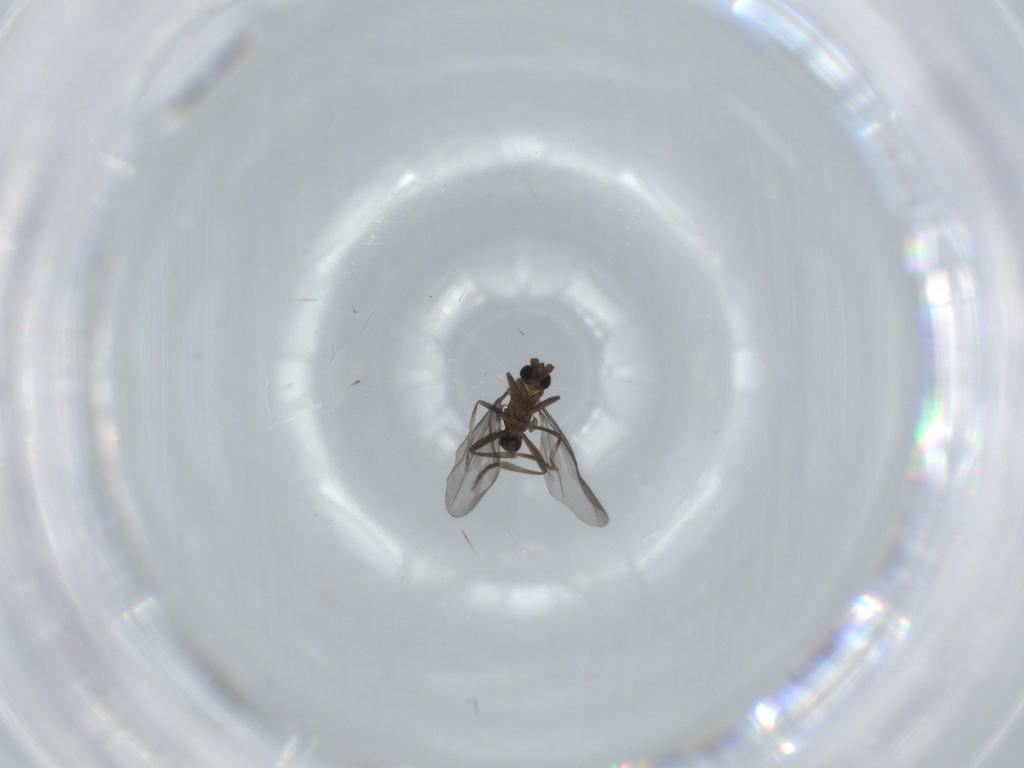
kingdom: Animalia
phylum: Arthropoda
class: Insecta
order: Diptera
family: Phoridae
